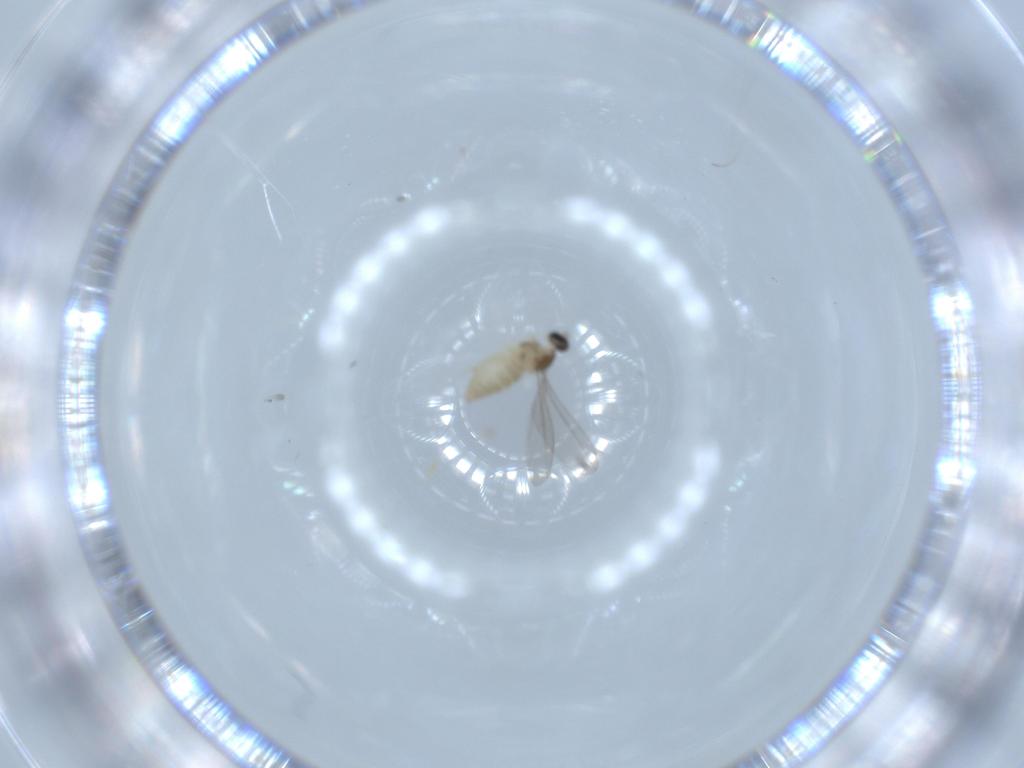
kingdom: Animalia
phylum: Arthropoda
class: Insecta
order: Diptera
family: Cecidomyiidae
